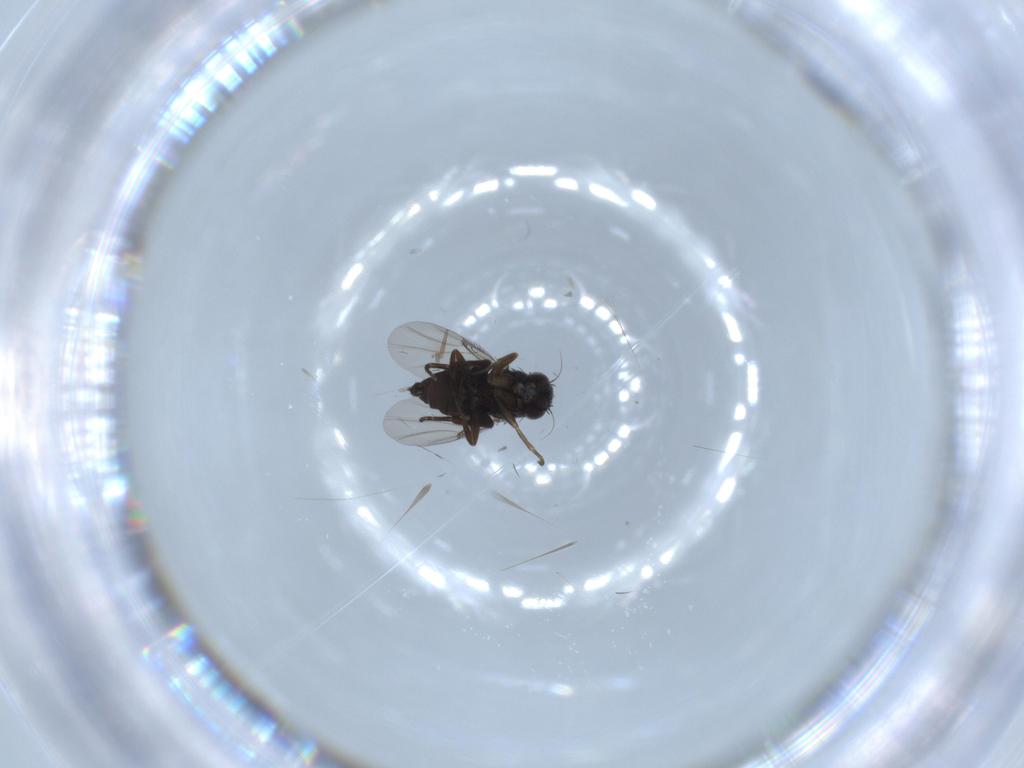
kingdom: Animalia
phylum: Arthropoda
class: Insecta
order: Diptera
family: Phoridae
